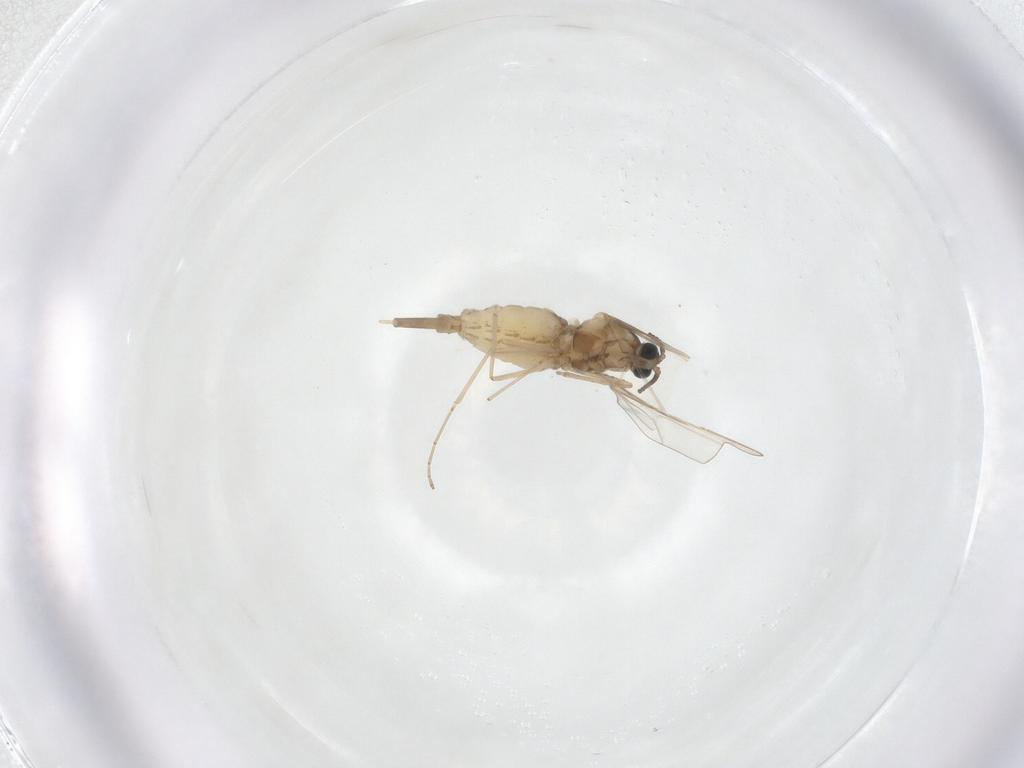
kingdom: Animalia
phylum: Arthropoda
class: Insecta
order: Diptera
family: Cecidomyiidae
